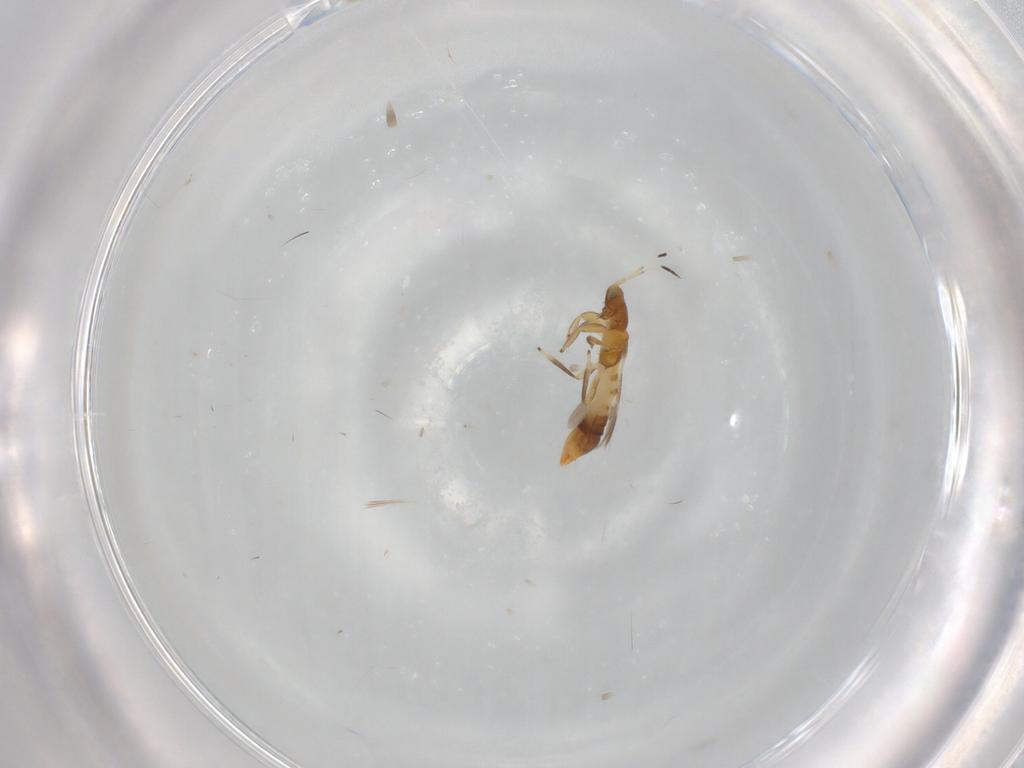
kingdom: Animalia
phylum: Arthropoda
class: Insecta
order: Thysanoptera
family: Aeolothripidae
